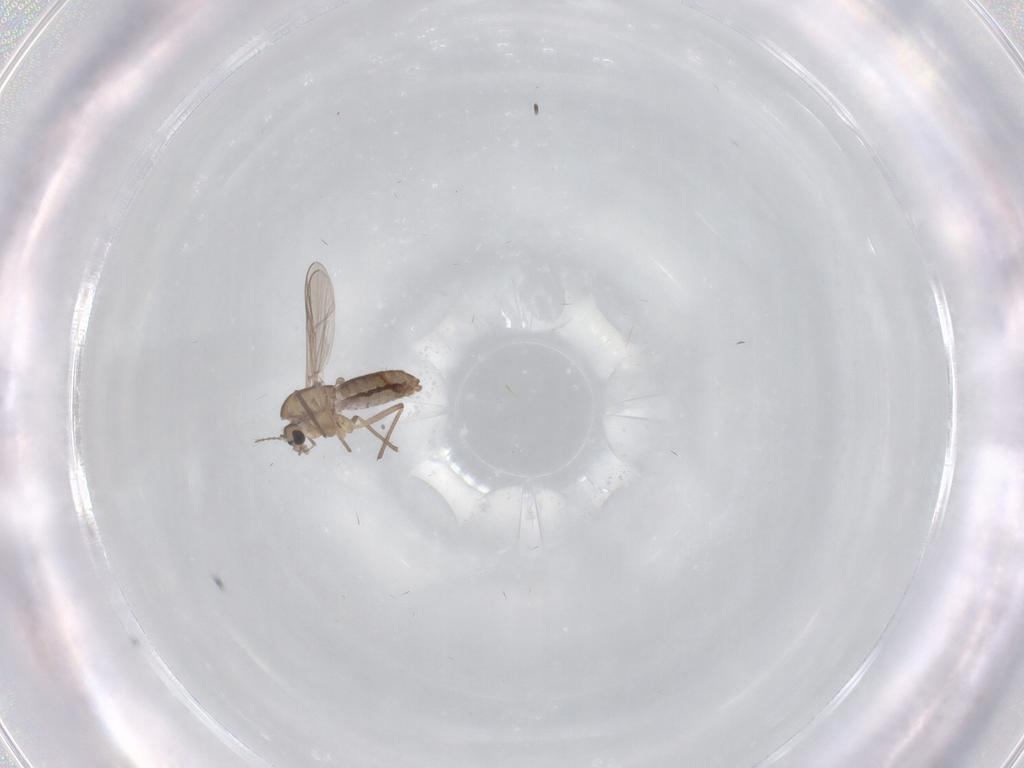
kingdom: Animalia
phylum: Arthropoda
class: Insecta
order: Diptera
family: Chironomidae
